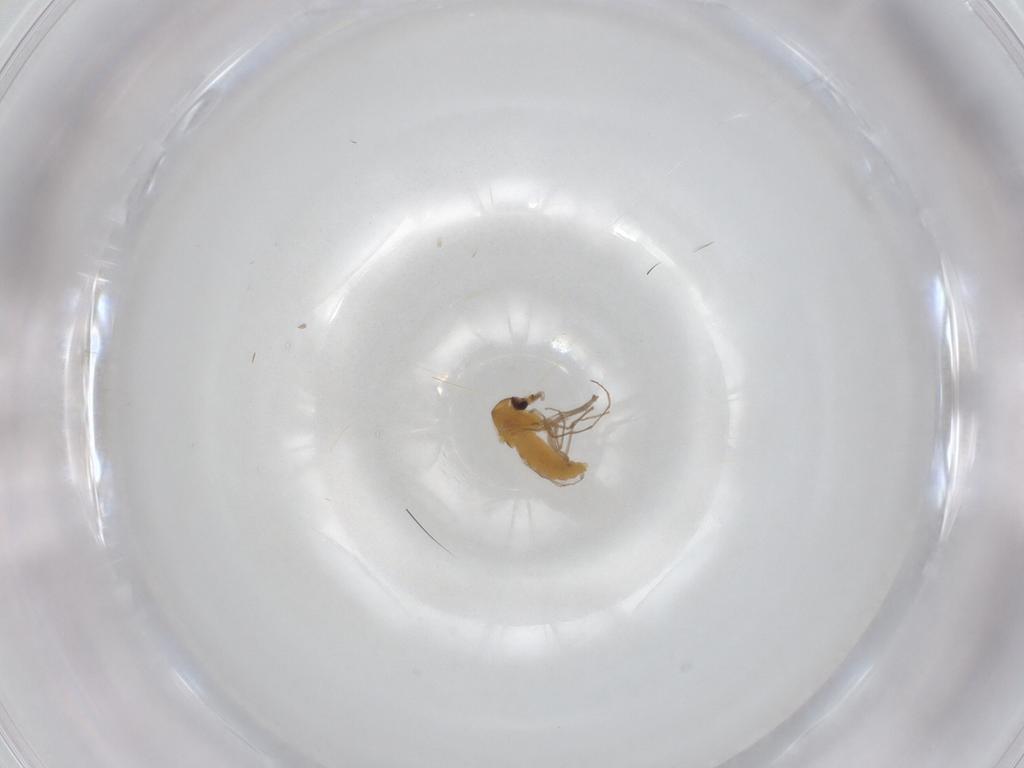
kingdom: Animalia
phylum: Arthropoda
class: Insecta
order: Diptera
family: Chironomidae
